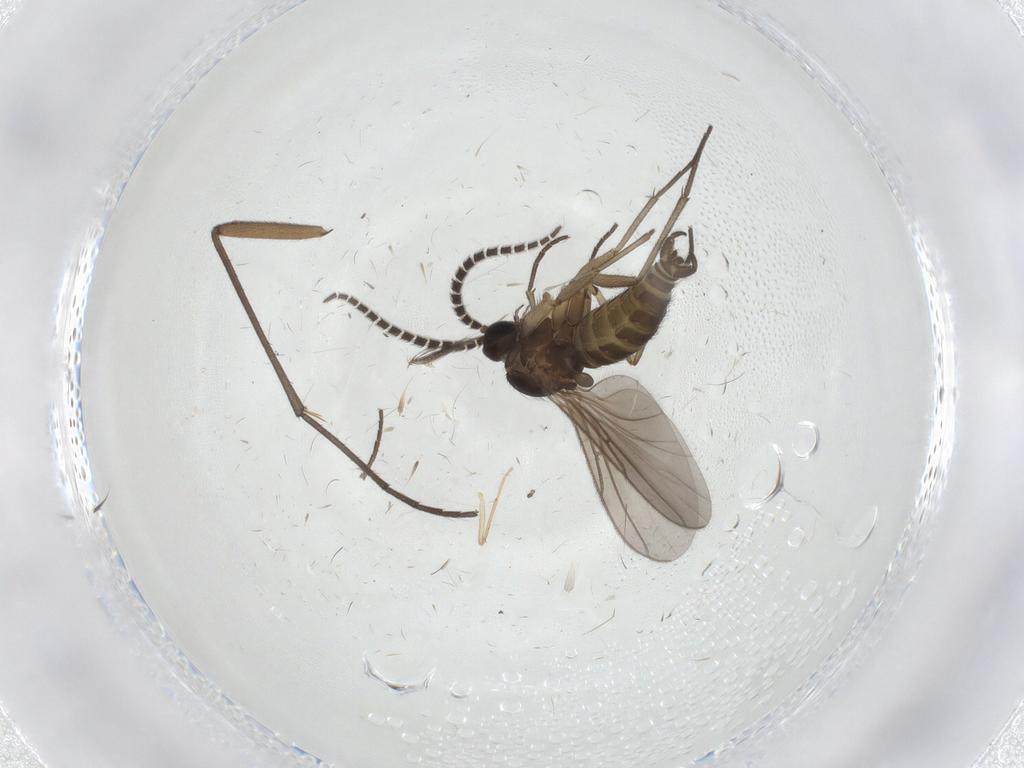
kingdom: Animalia
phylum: Arthropoda
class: Insecta
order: Diptera
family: Sciaridae
